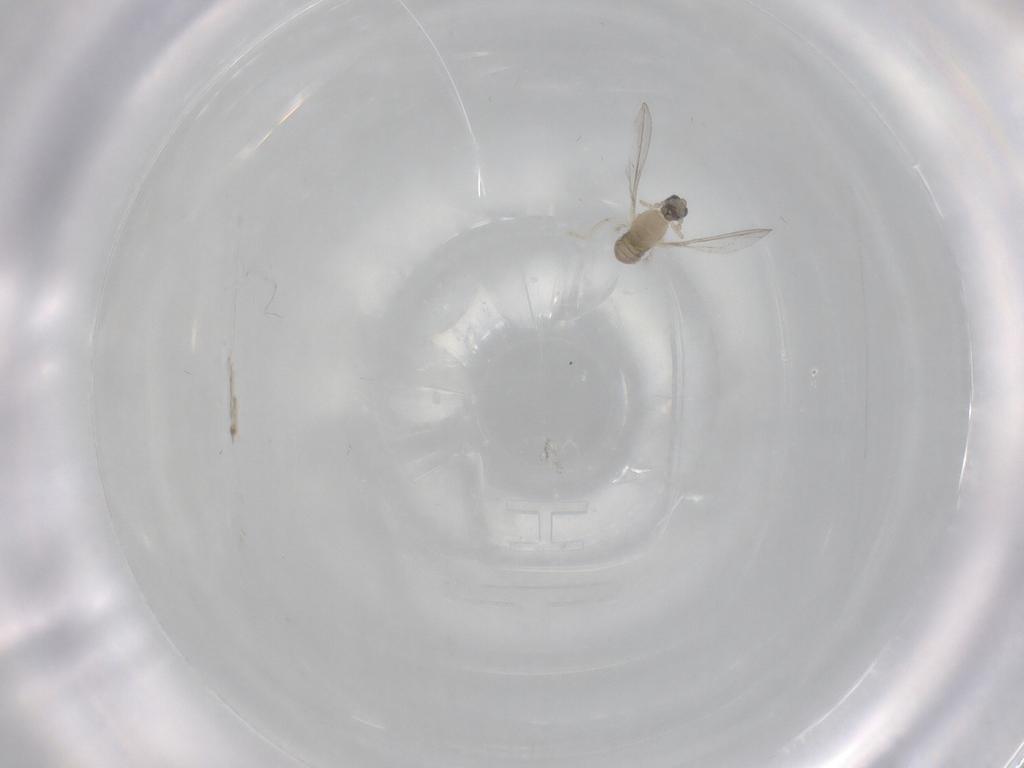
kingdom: Animalia
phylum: Arthropoda
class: Insecta
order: Diptera
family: Cecidomyiidae
